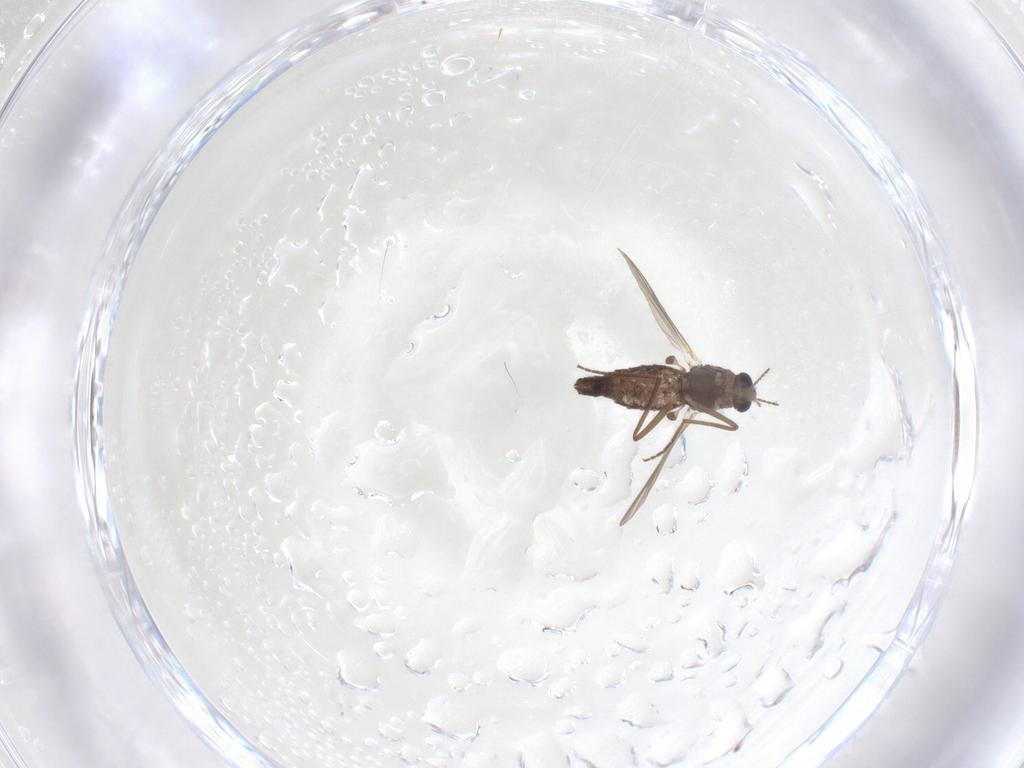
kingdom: Animalia
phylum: Arthropoda
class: Insecta
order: Diptera
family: Chironomidae
